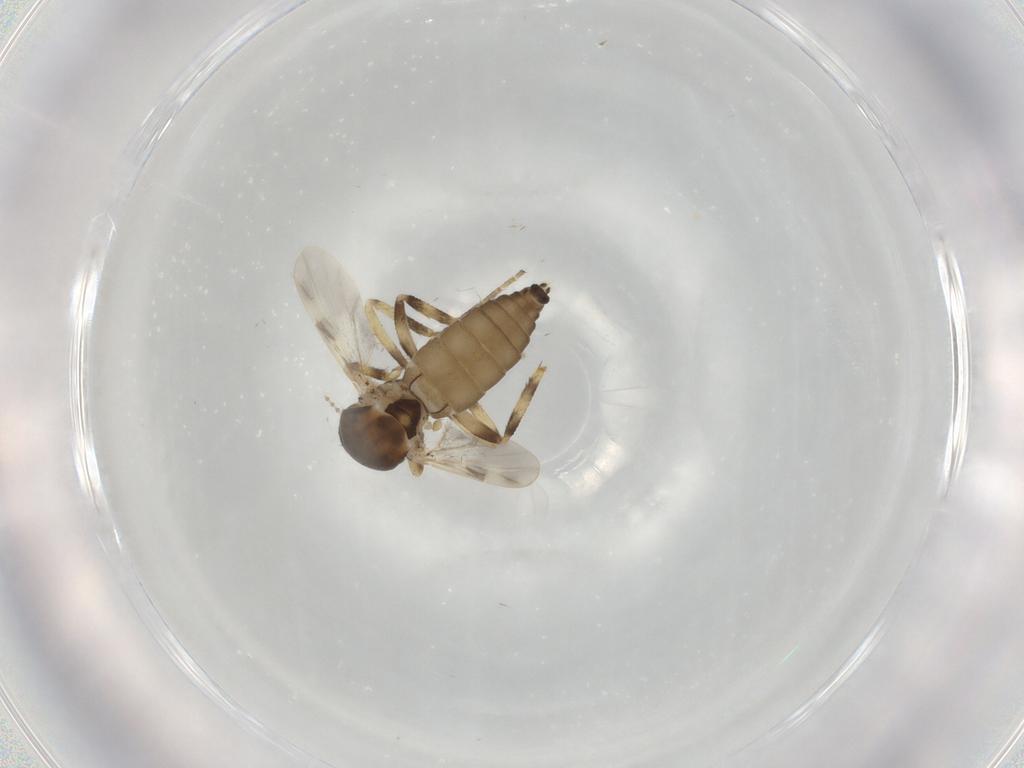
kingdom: Animalia
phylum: Arthropoda
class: Insecta
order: Diptera
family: Ceratopogonidae
